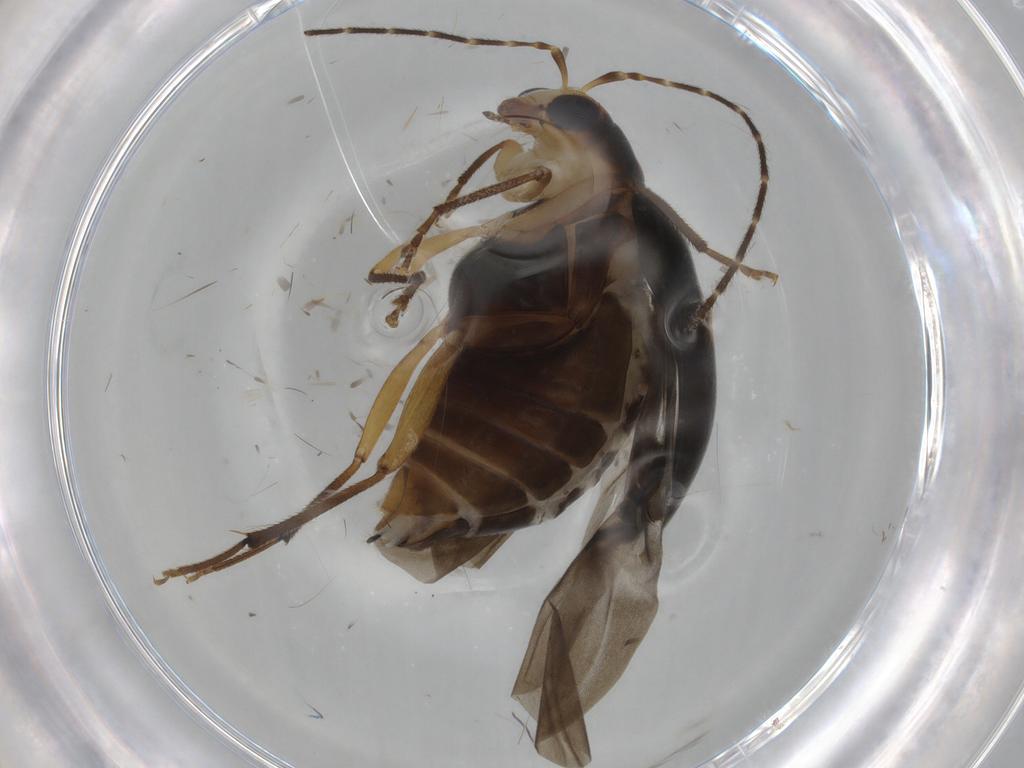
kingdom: Animalia
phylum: Arthropoda
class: Insecta
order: Coleoptera
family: Chrysomelidae
